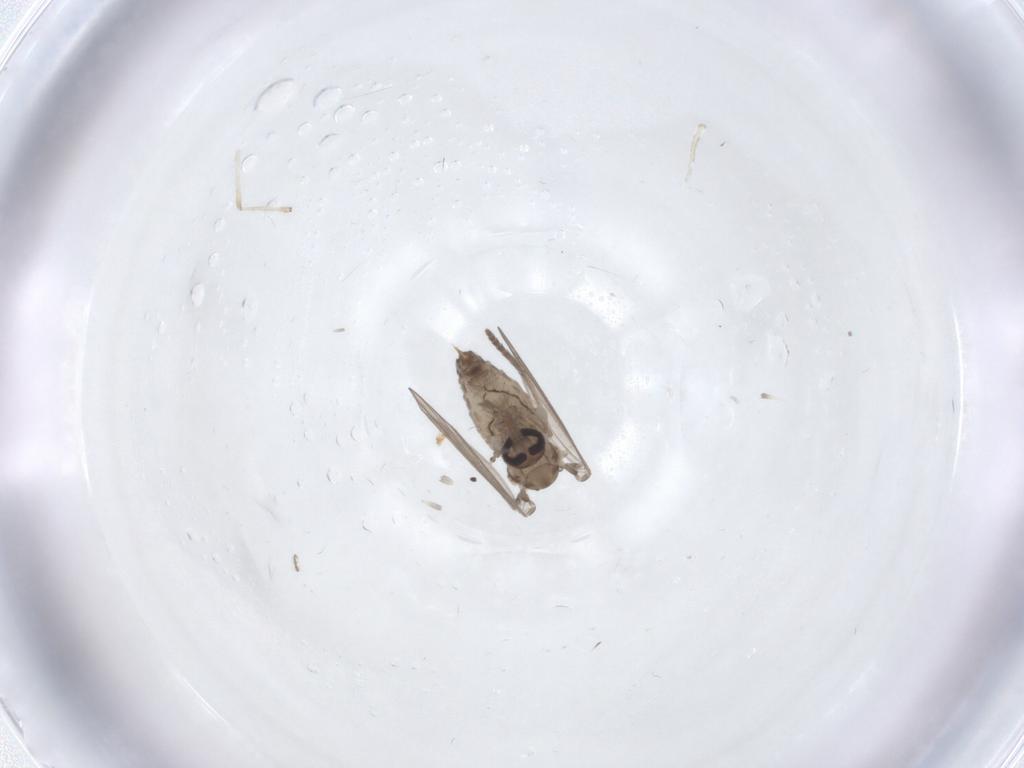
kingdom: Animalia
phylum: Arthropoda
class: Insecta
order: Diptera
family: Psychodidae
